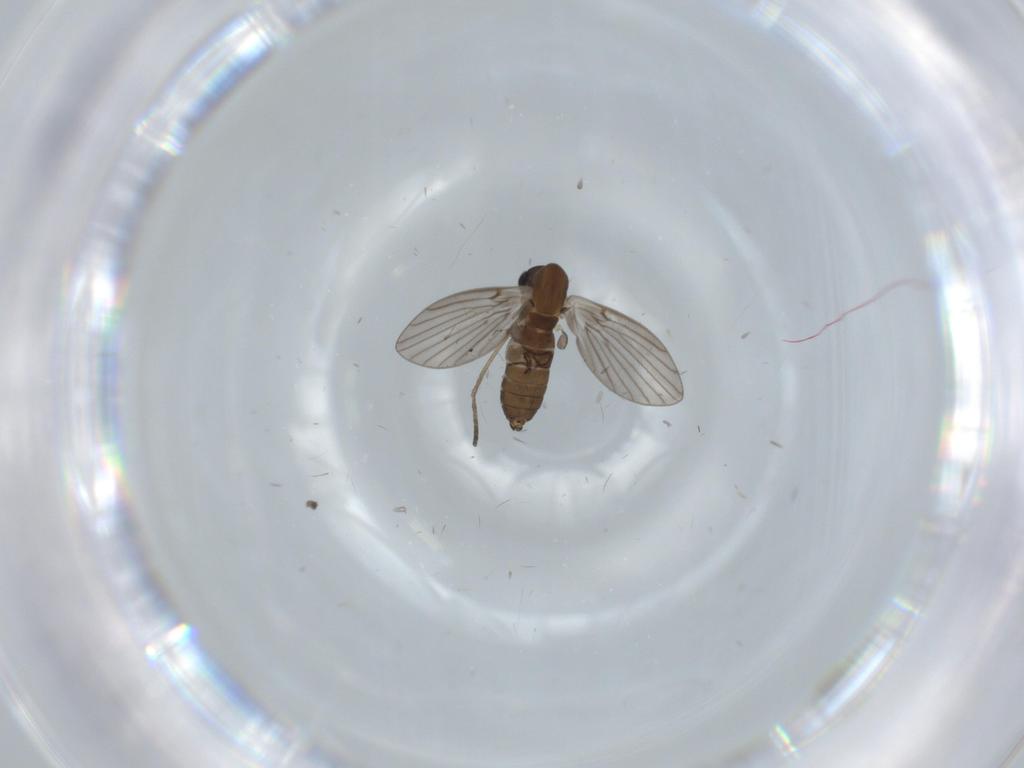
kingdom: Animalia
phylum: Arthropoda
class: Insecta
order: Diptera
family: Psychodidae
